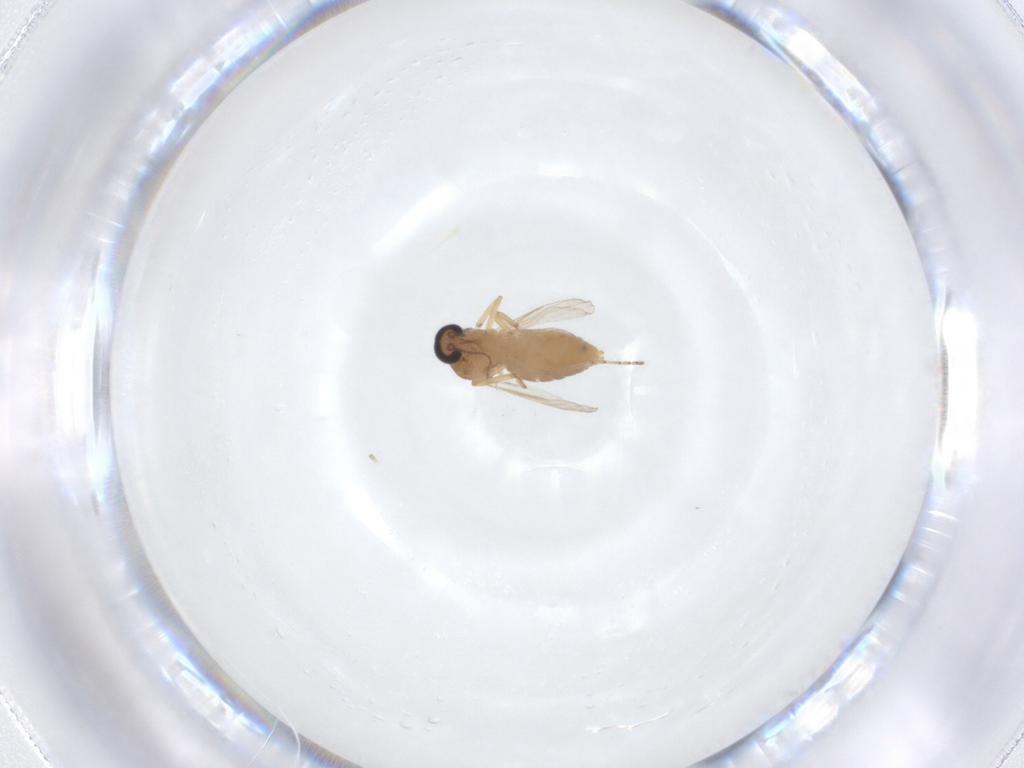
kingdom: Animalia
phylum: Arthropoda
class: Insecta
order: Diptera
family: Ceratopogonidae
